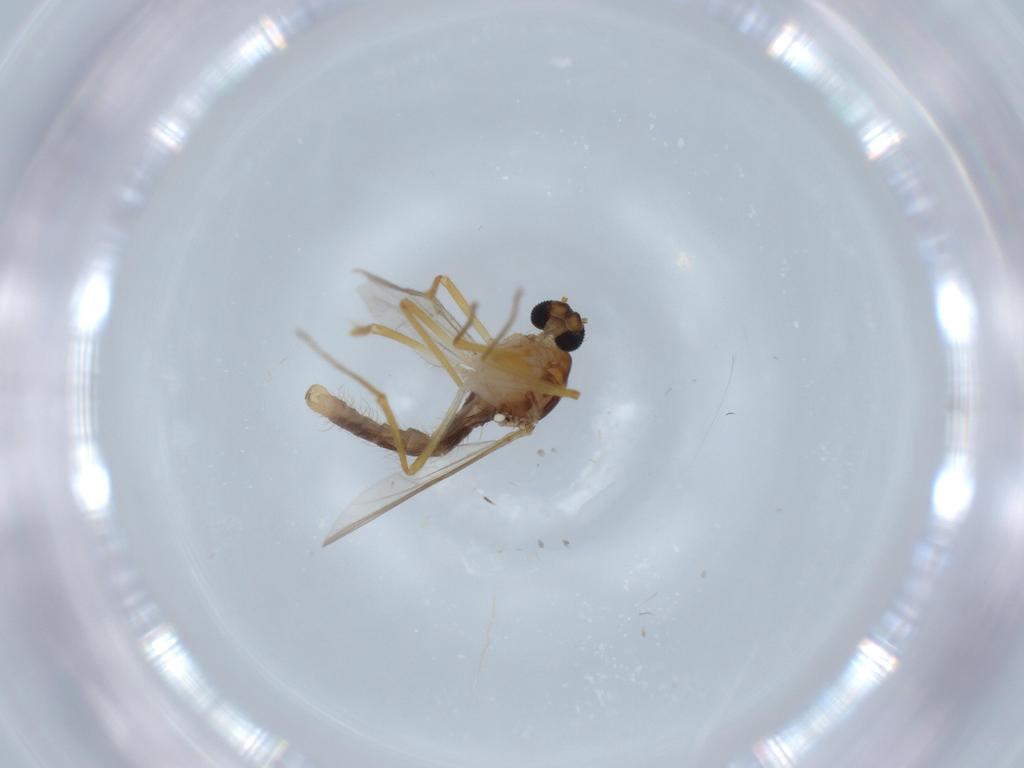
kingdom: Animalia
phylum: Arthropoda
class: Insecta
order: Diptera
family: Cecidomyiidae
